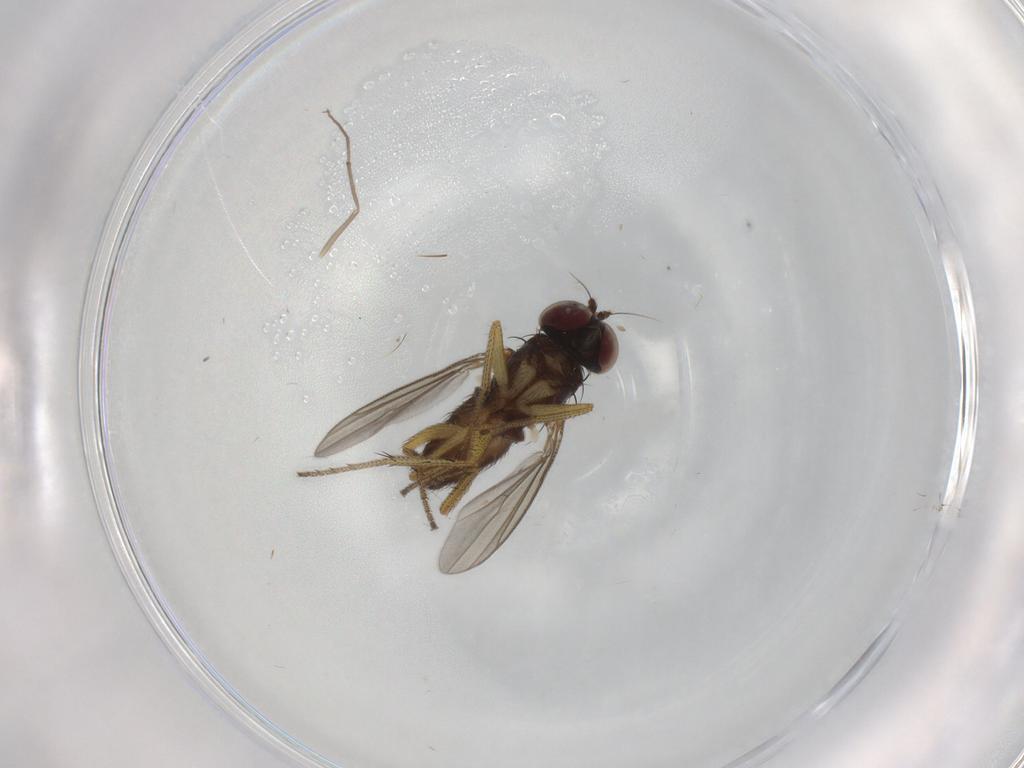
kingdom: Animalia
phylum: Arthropoda
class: Insecta
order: Diptera
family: Dolichopodidae
